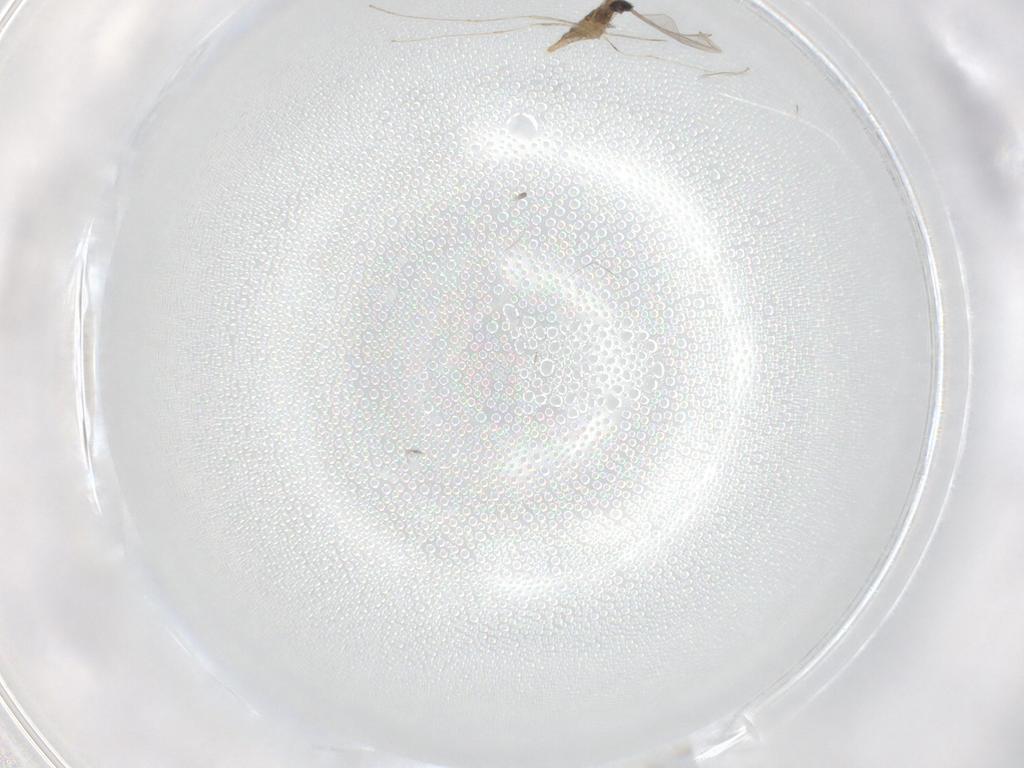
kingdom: Animalia
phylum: Arthropoda
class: Insecta
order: Diptera
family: Cecidomyiidae
